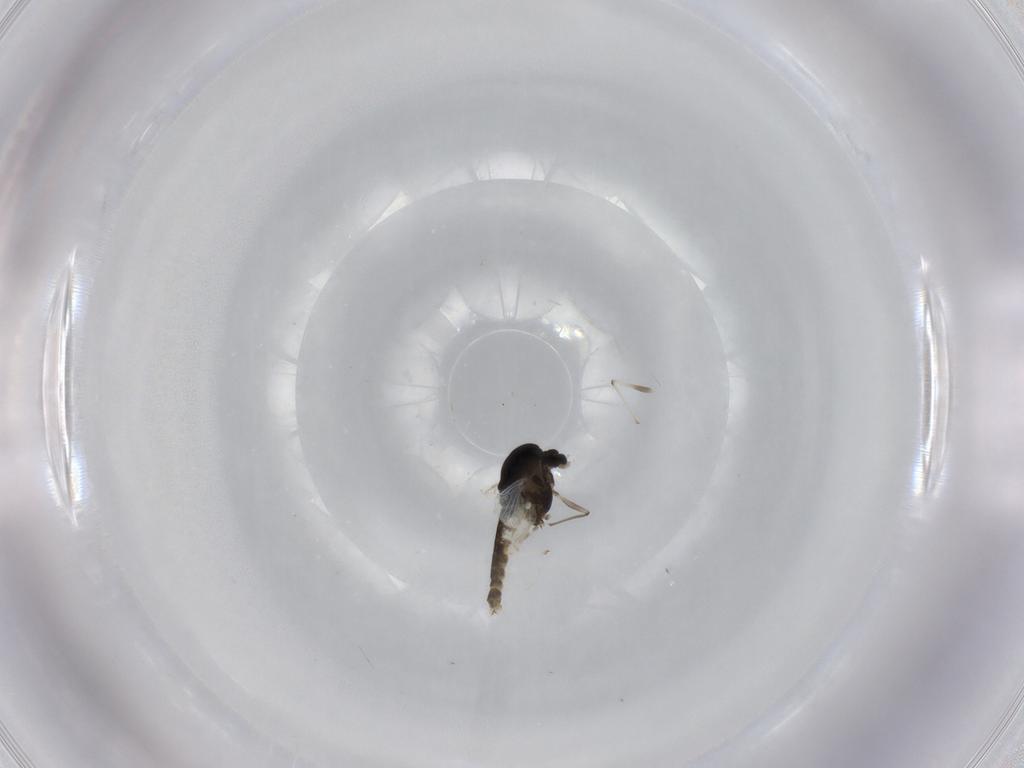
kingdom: Animalia
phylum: Arthropoda
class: Insecta
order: Diptera
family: Chironomidae
